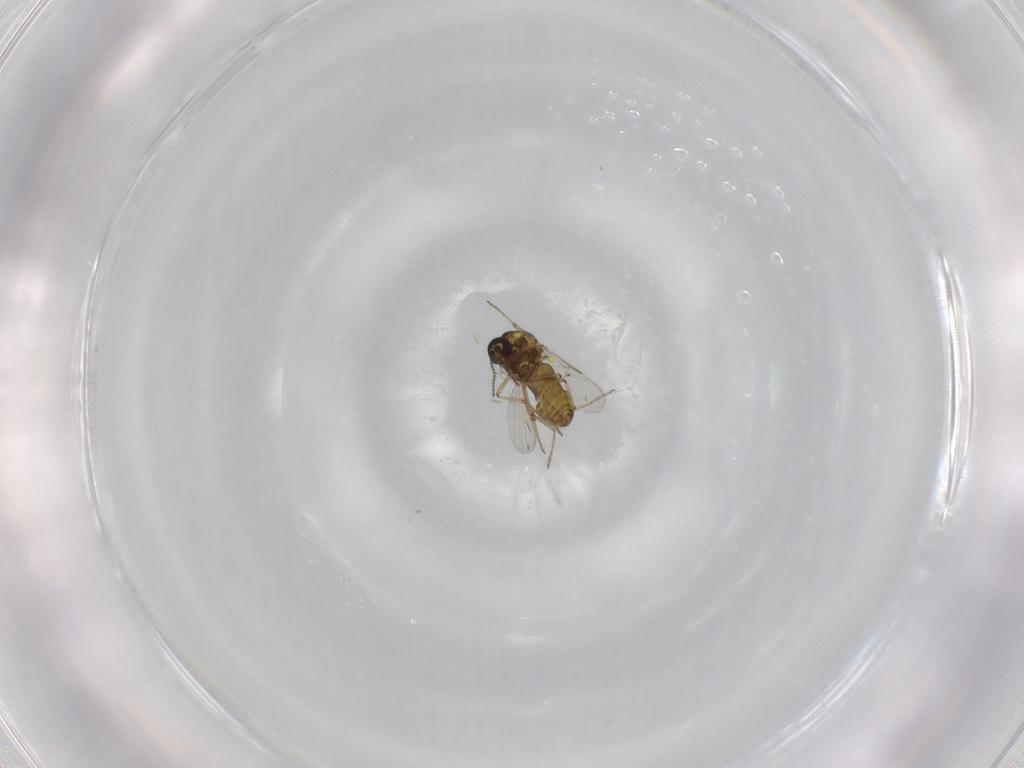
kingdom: Animalia
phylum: Arthropoda
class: Insecta
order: Diptera
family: Ceratopogonidae
